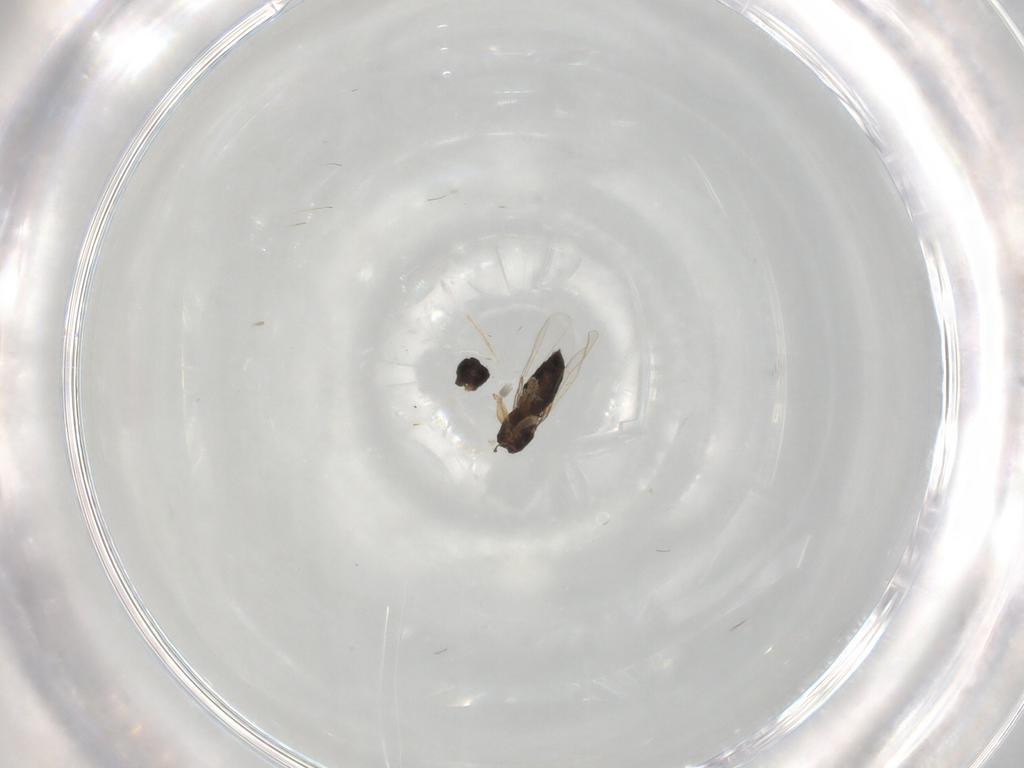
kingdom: Animalia
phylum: Arthropoda
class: Insecta
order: Diptera
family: Phoridae
